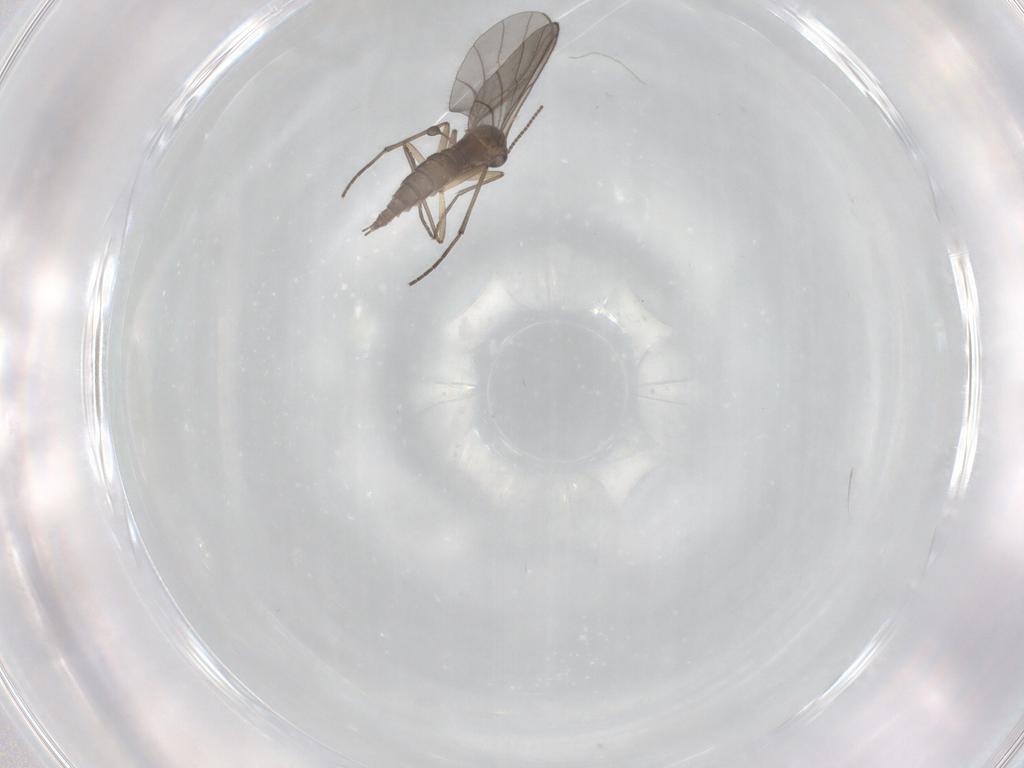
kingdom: Animalia
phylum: Arthropoda
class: Insecta
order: Diptera
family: Sciaridae
